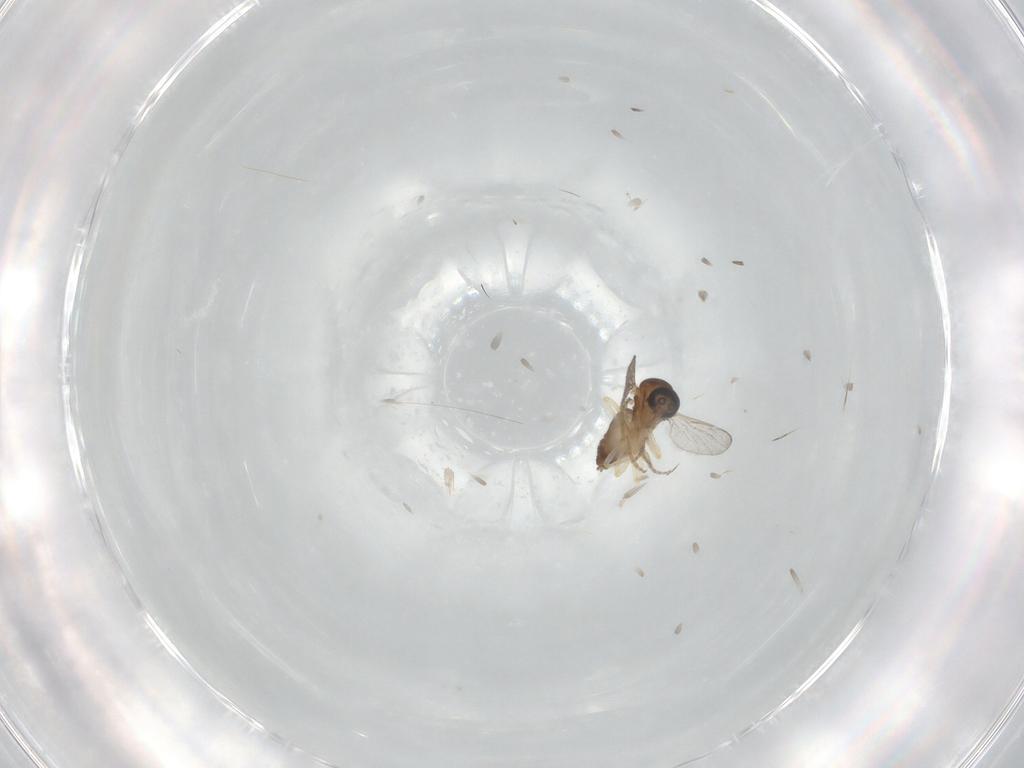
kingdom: Animalia
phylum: Arthropoda
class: Insecta
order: Diptera
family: Ceratopogonidae
